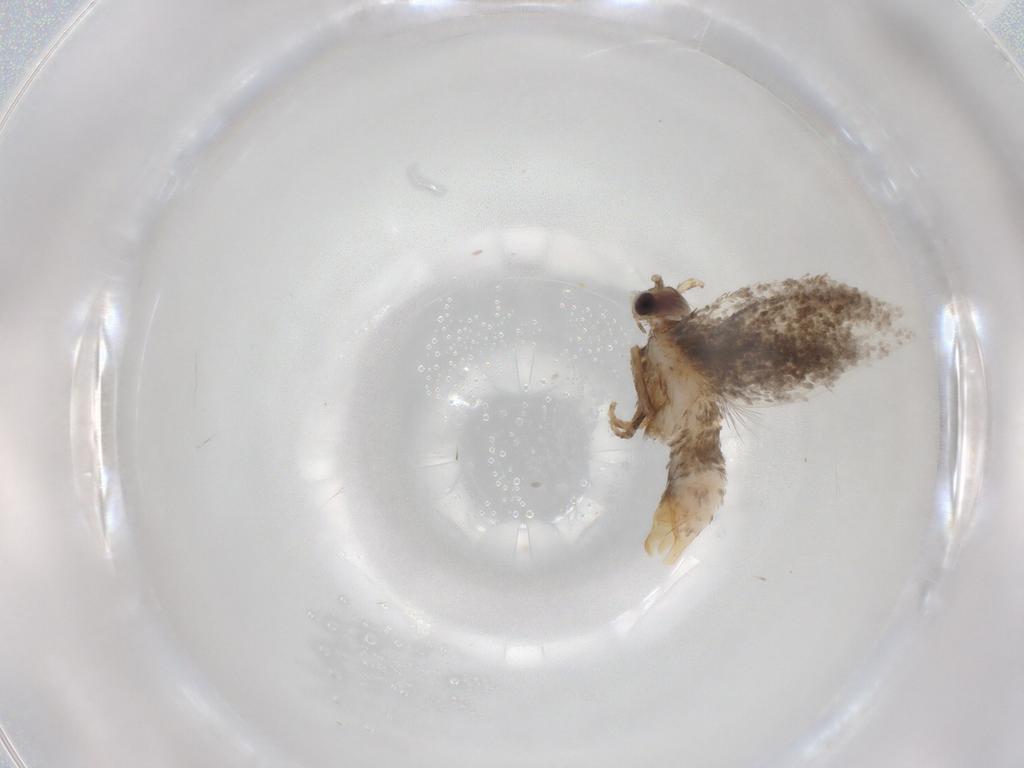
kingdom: Animalia
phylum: Arthropoda
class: Insecta
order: Lepidoptera
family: Tineidae
